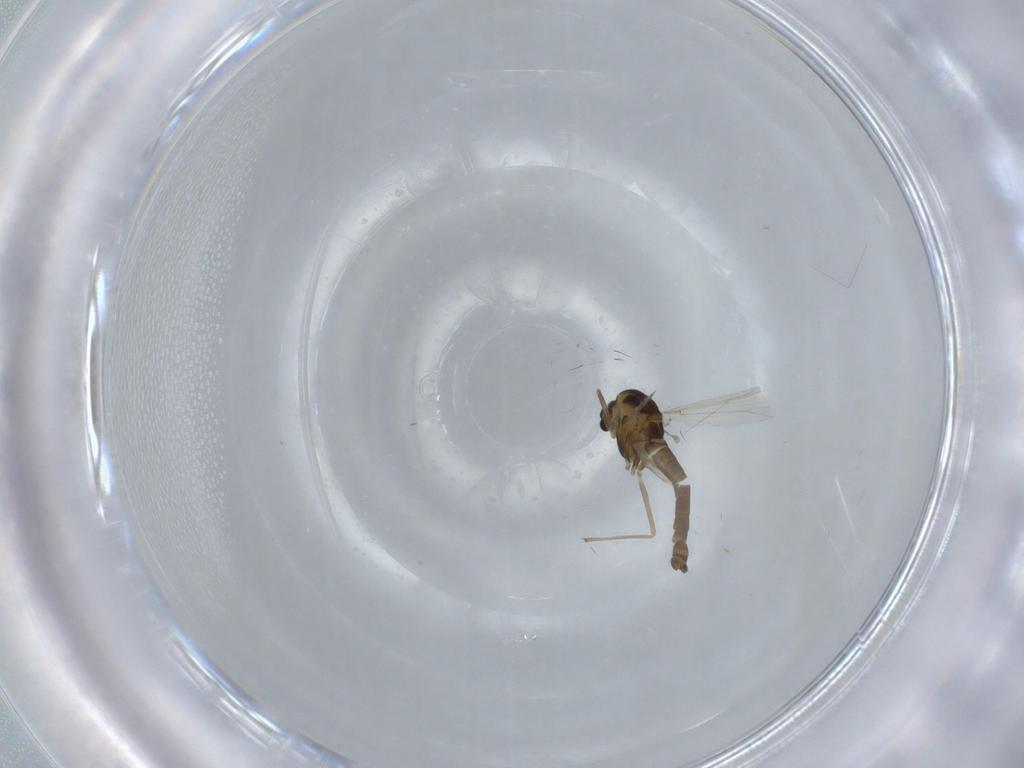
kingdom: Animalia
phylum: Arthropoda
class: Insecta
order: Diptera
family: Chironomidae
